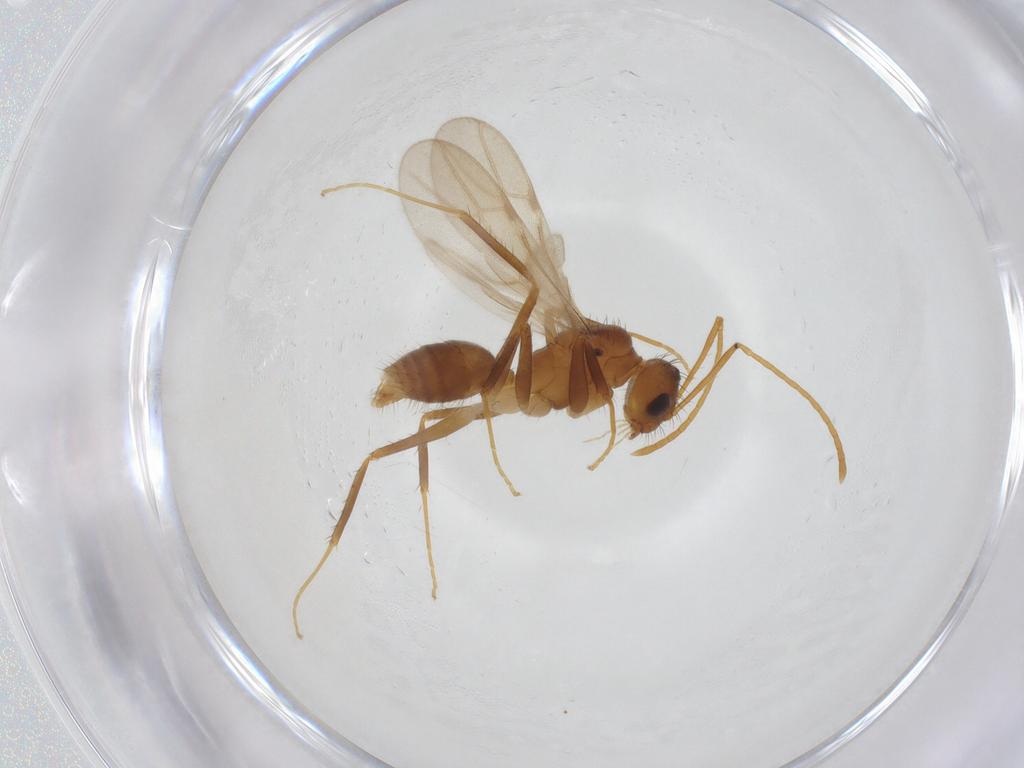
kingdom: Animalia
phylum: Arthropoda
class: Insecta
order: Hymenoptera
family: Formicidae
